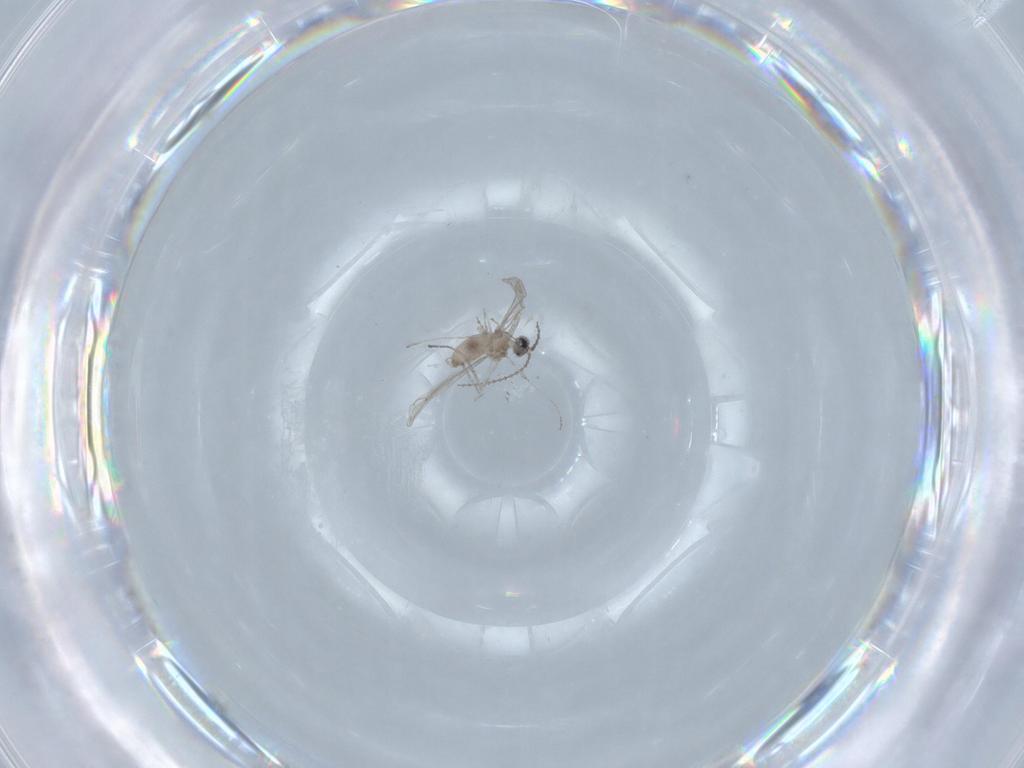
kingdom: Animalia
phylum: Arthropoda
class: Insecta
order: Diptera
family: Cecidomyiidae
